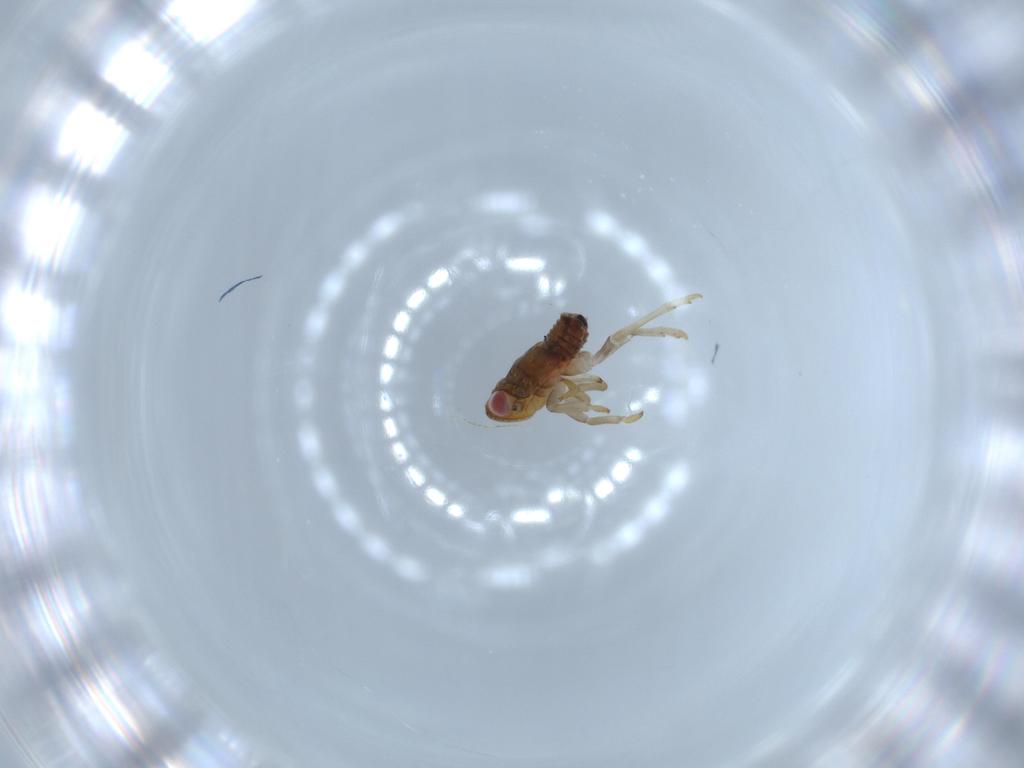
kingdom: Animalia
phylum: Arthropoda
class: Insecta
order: Hemiptera
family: Issidae
